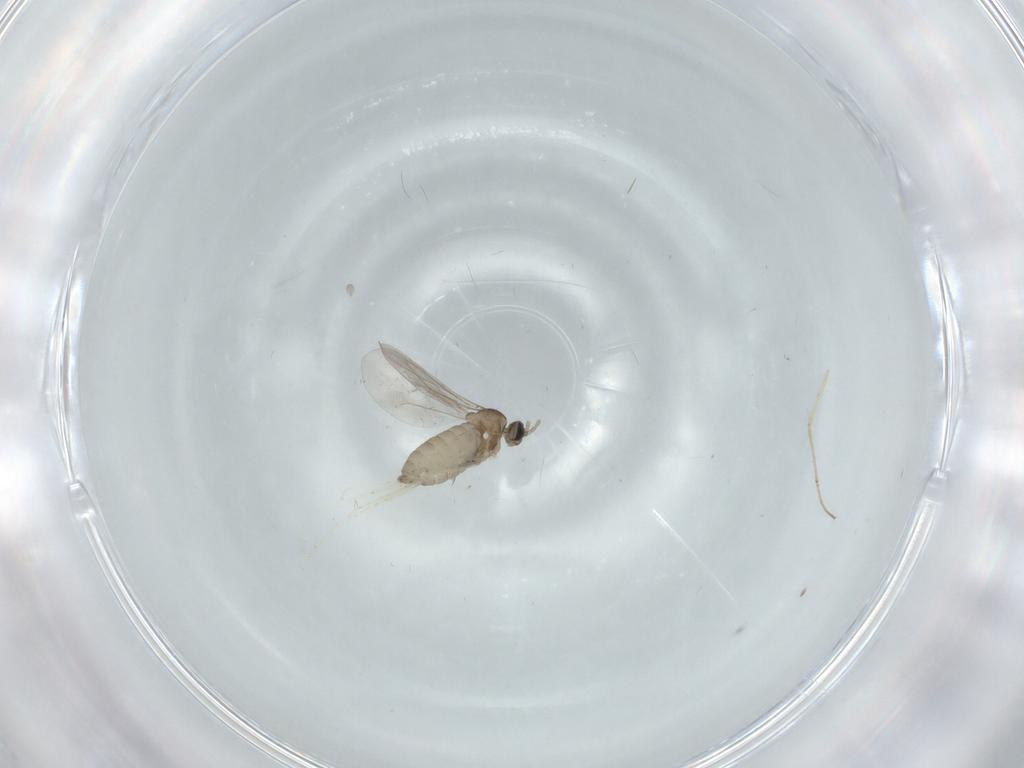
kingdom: Animalia
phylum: Arthropoda
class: Insecta
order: Diptera
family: Cecidomyiidae
